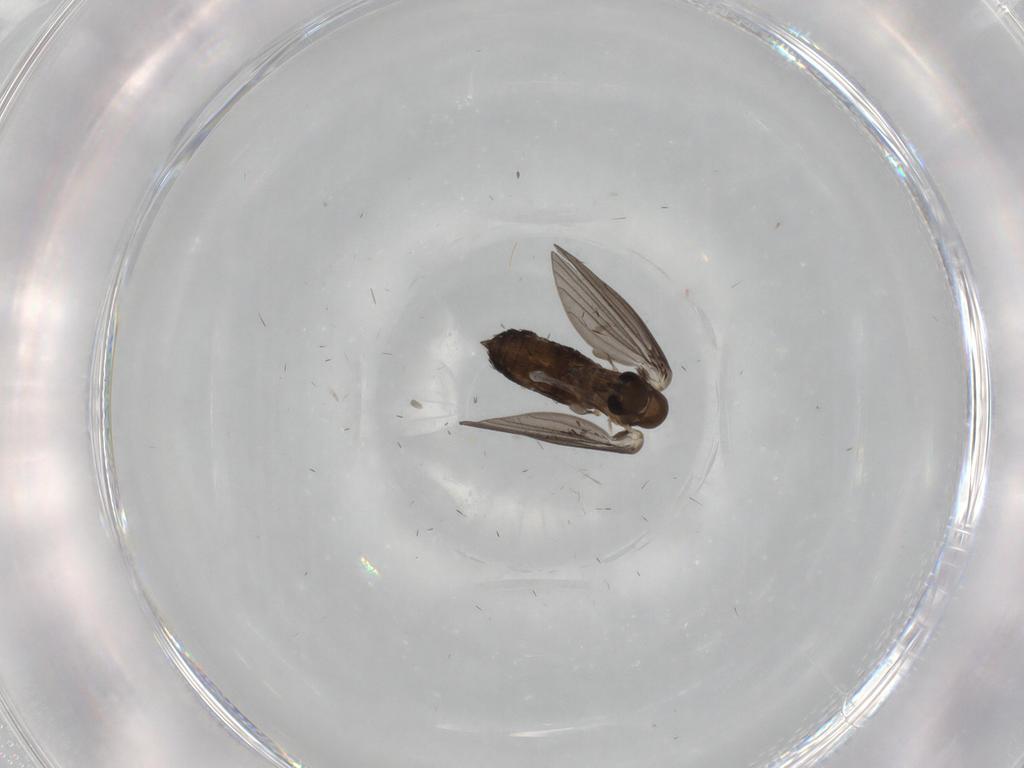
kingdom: Animalia
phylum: Arthropoda
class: Insecta
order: Diptera
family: Psychodidae
